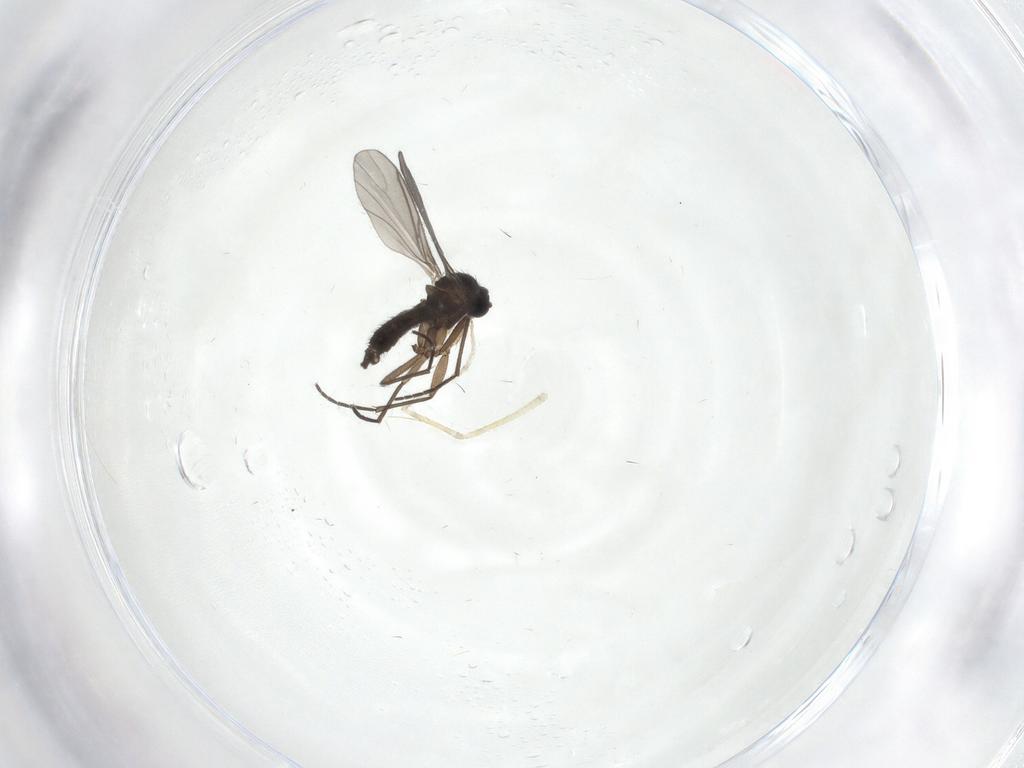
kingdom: Animalia
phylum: Arthropoda
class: Insecta
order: Diptera
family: Sciaridae
